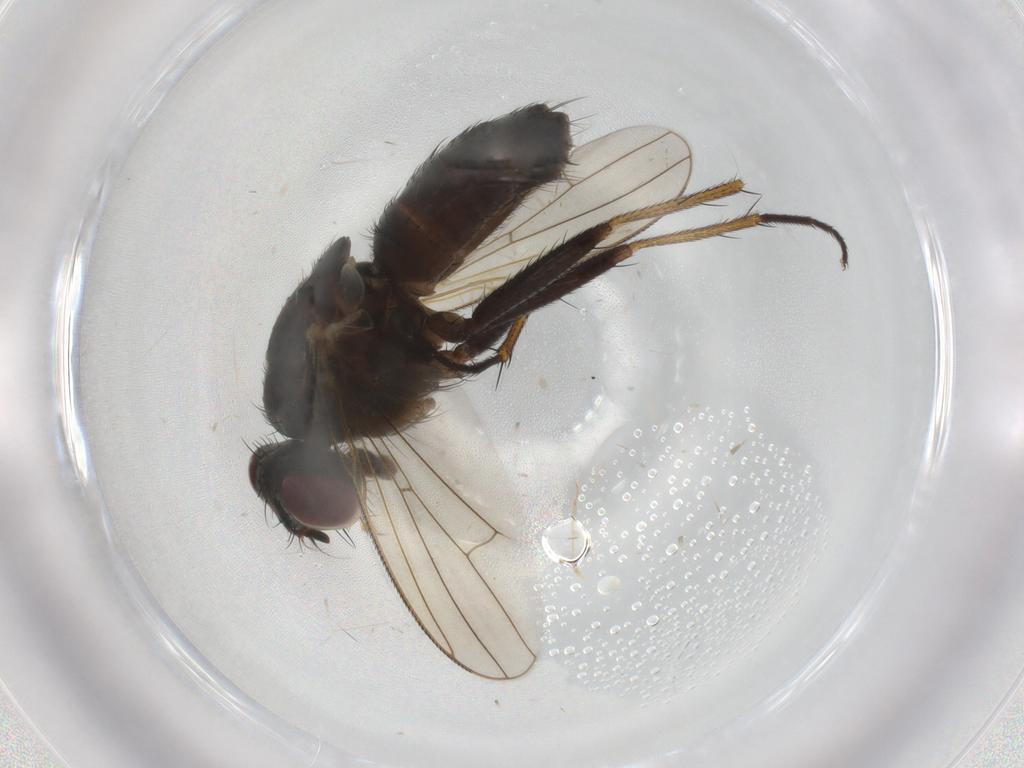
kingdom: Animalia
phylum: Arthropoda
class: Insecta
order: Diptera
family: Muscidae
